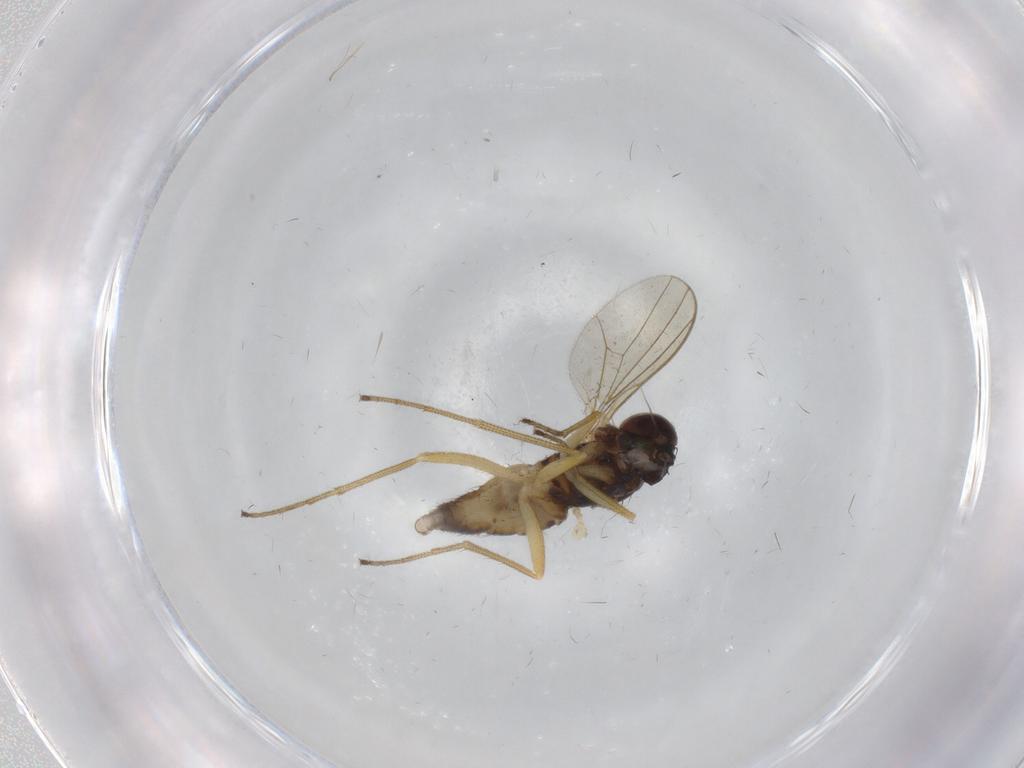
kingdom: Animalia
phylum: Arthropoda
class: Insecta
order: Diptera
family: Dolichopodidae
